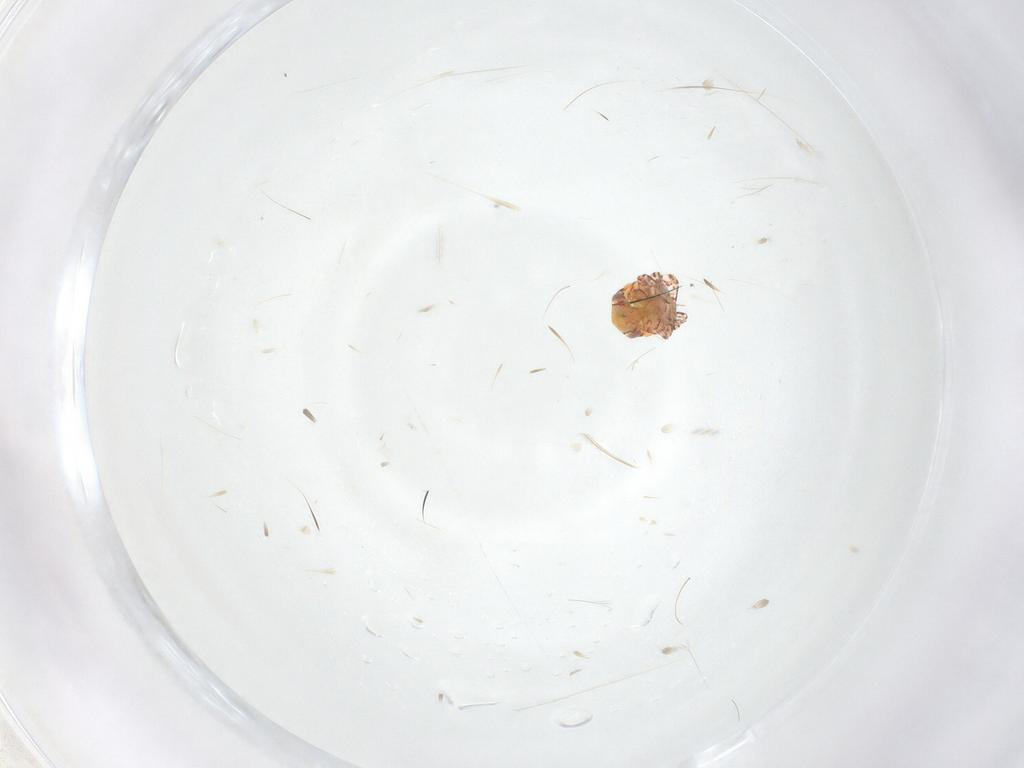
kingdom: Animalia
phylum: Arthropoda
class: Insecta
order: Hemiptera
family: Miridae
